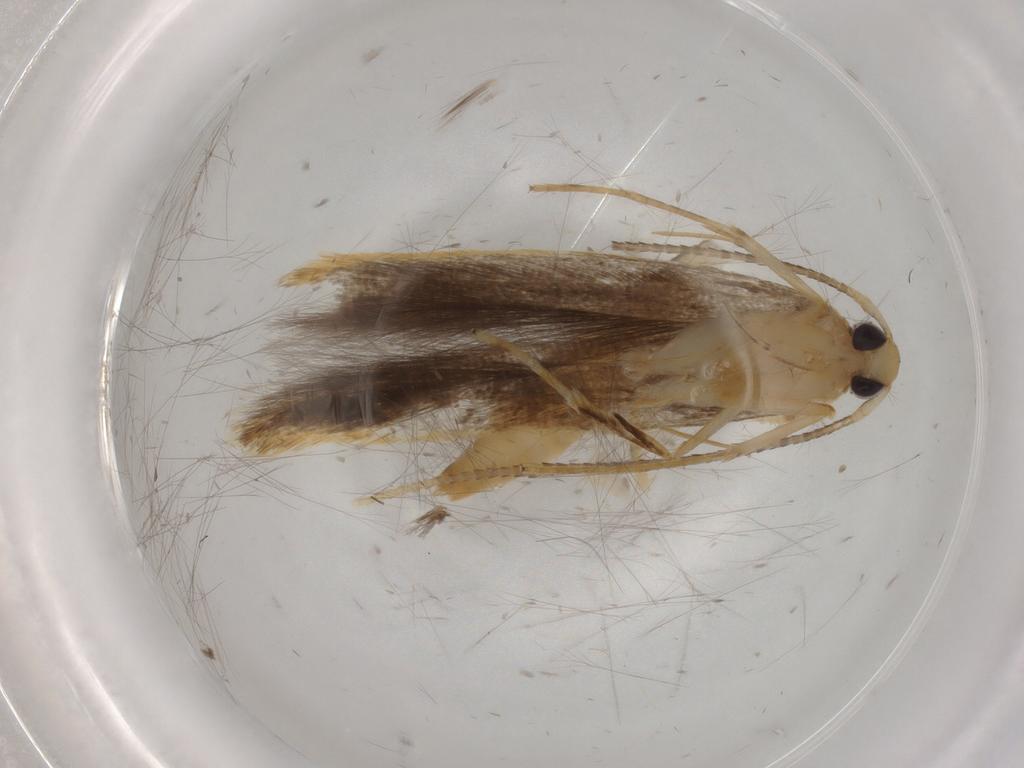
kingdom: Animalia
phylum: Arthropoda
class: Insecta
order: Lepidoptera
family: Pterolonchidae
